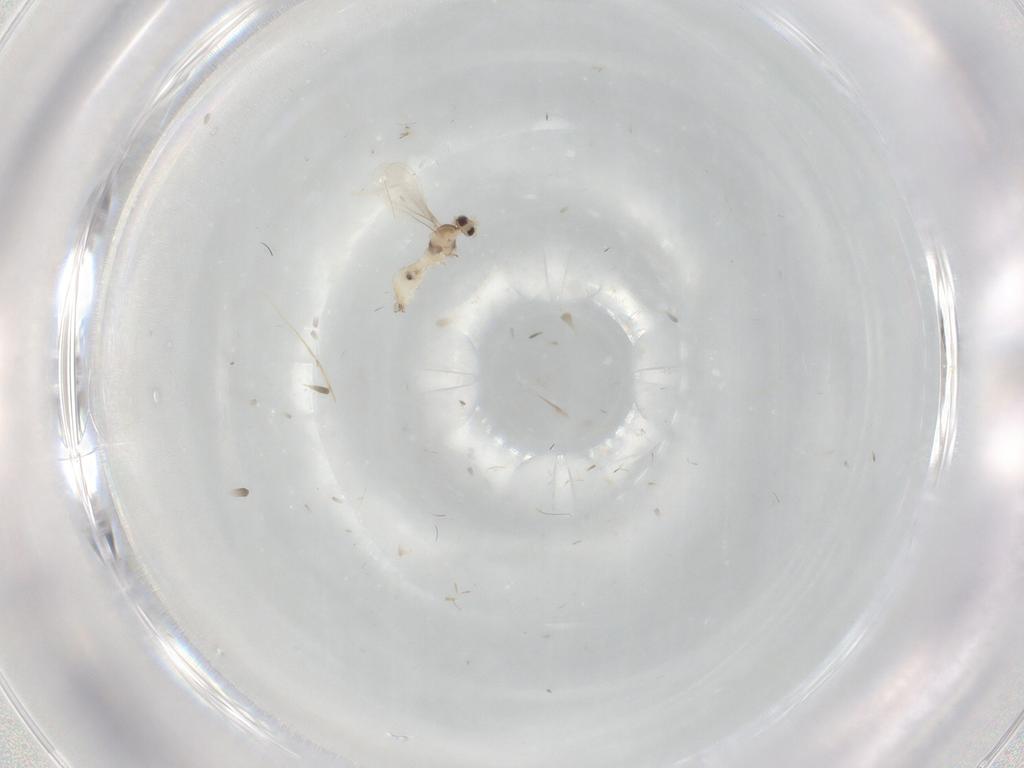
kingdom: Animalia
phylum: Arthropoda
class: Insecta
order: Diptera
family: Cecidomyiidae
